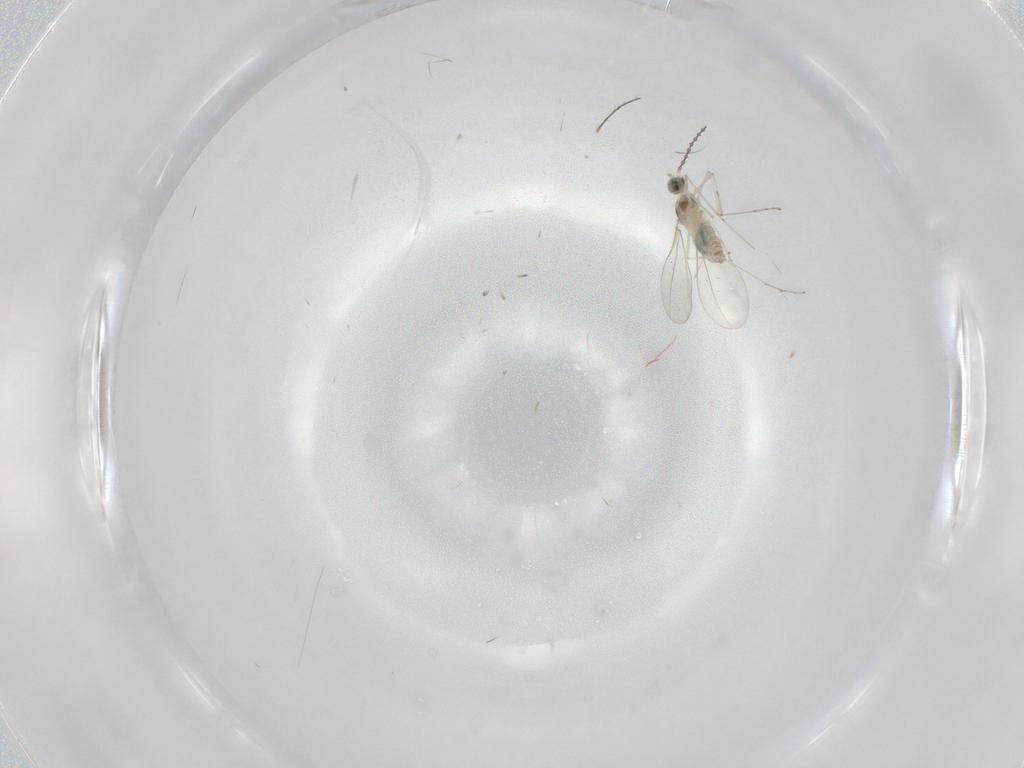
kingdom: Animalia
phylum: Arthropoda
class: Insecta
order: Diptera
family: Cecidomyiidae
